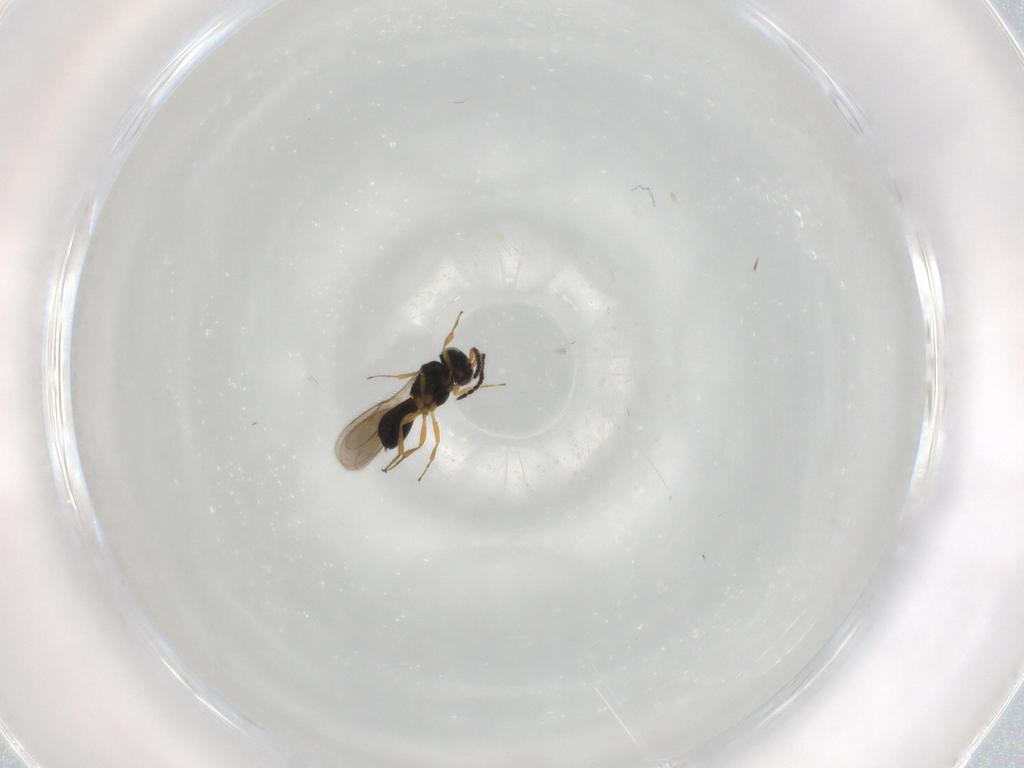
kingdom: Animalia
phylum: Arthropoda
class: Insecta
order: Hymenoptera
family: Scelionidae
